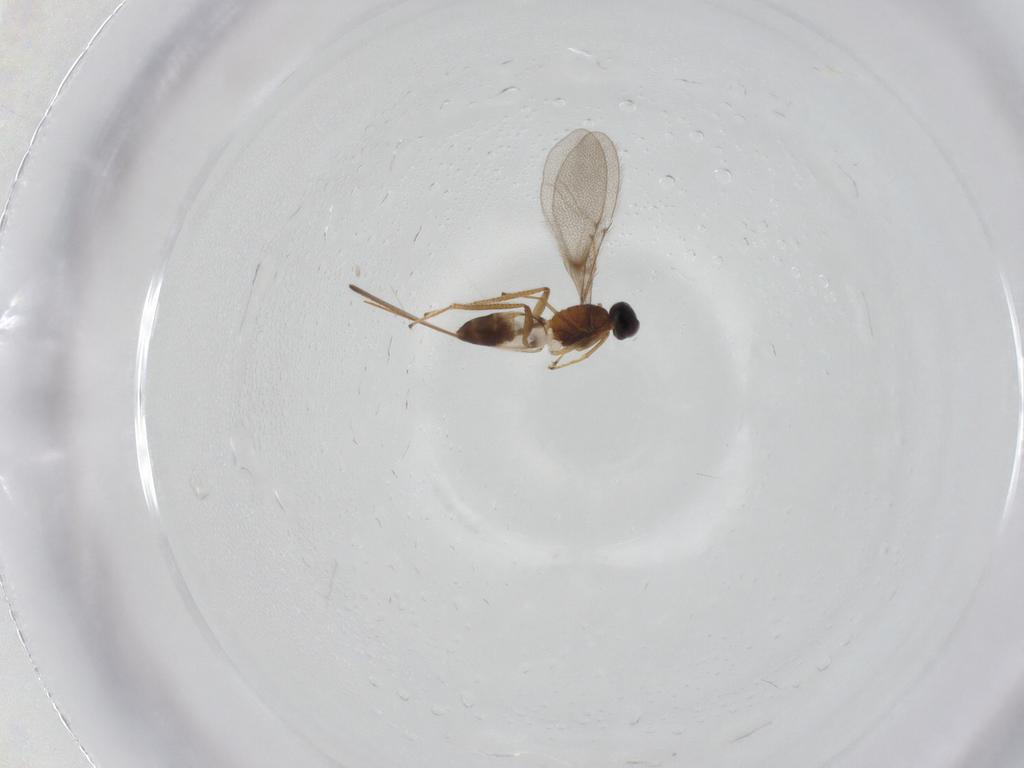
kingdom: Animalia
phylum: Arthropoda
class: Insecta
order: Hymenoptera
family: Mymaridae
